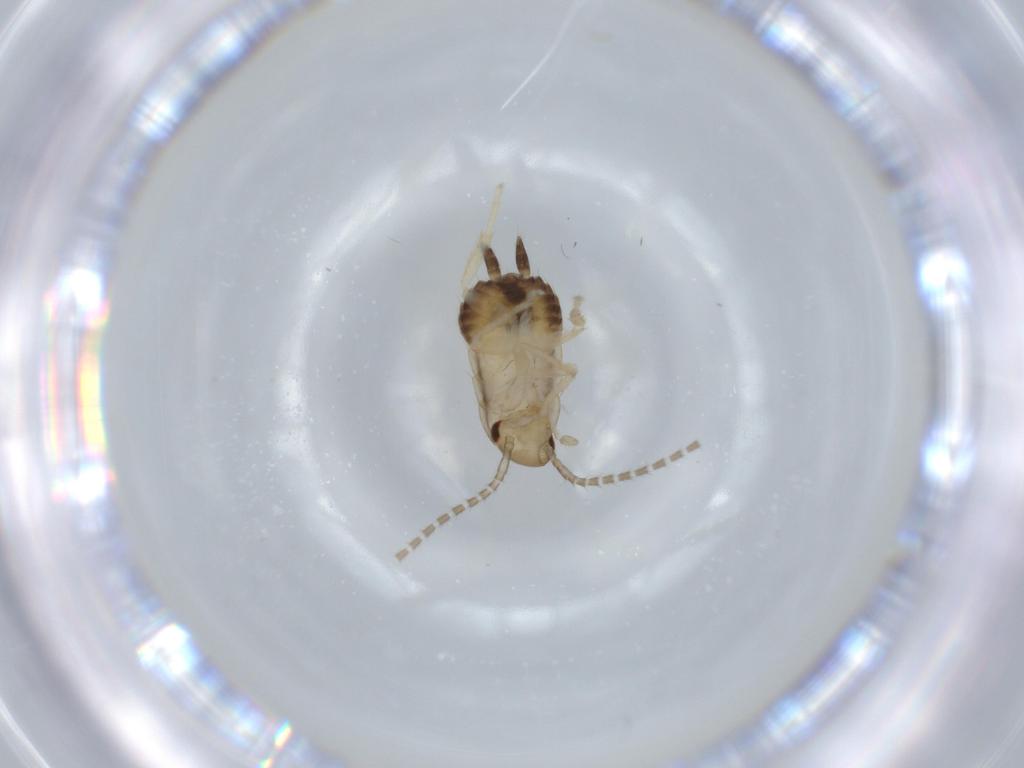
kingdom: Animalia
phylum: Arthropoda
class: Insecta
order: Blattodea
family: Ectobiidae
